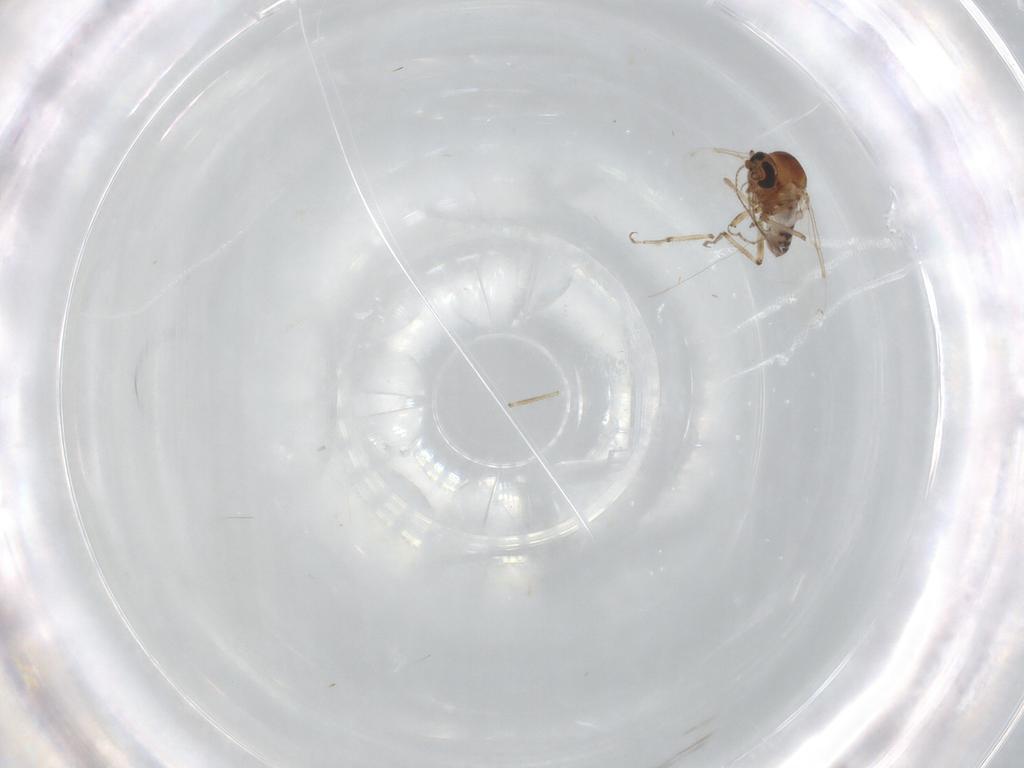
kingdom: Animalia
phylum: Arthropoda
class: Insecta
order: Diptera
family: Ceratopogonidae
